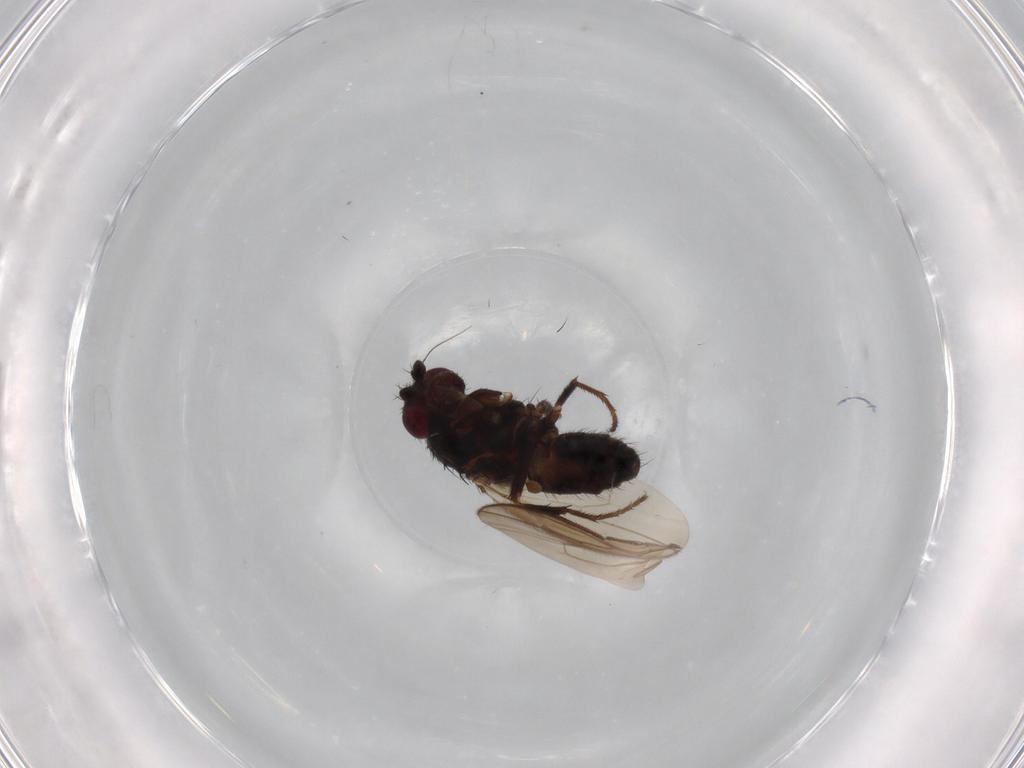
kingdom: Animalia
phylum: Arthropoda
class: Insecta
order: Diptera
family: Sphaeroceridae
